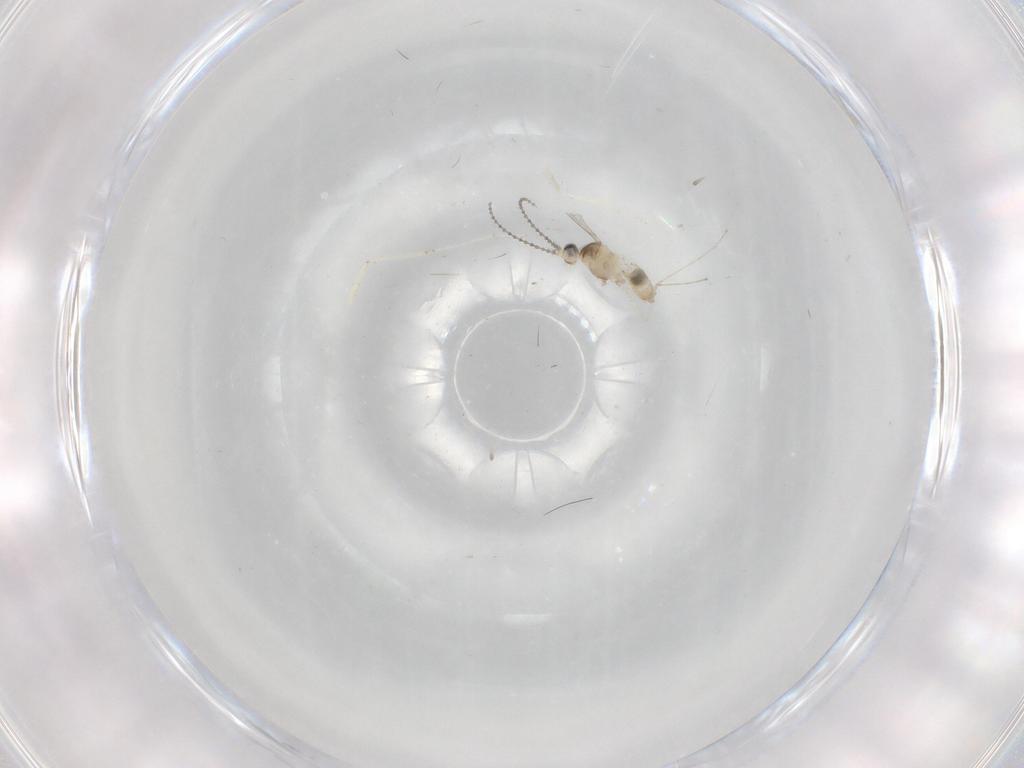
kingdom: Animalia
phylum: Arthropoda
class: Insecta
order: Diptera
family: Cecidomyiidae
